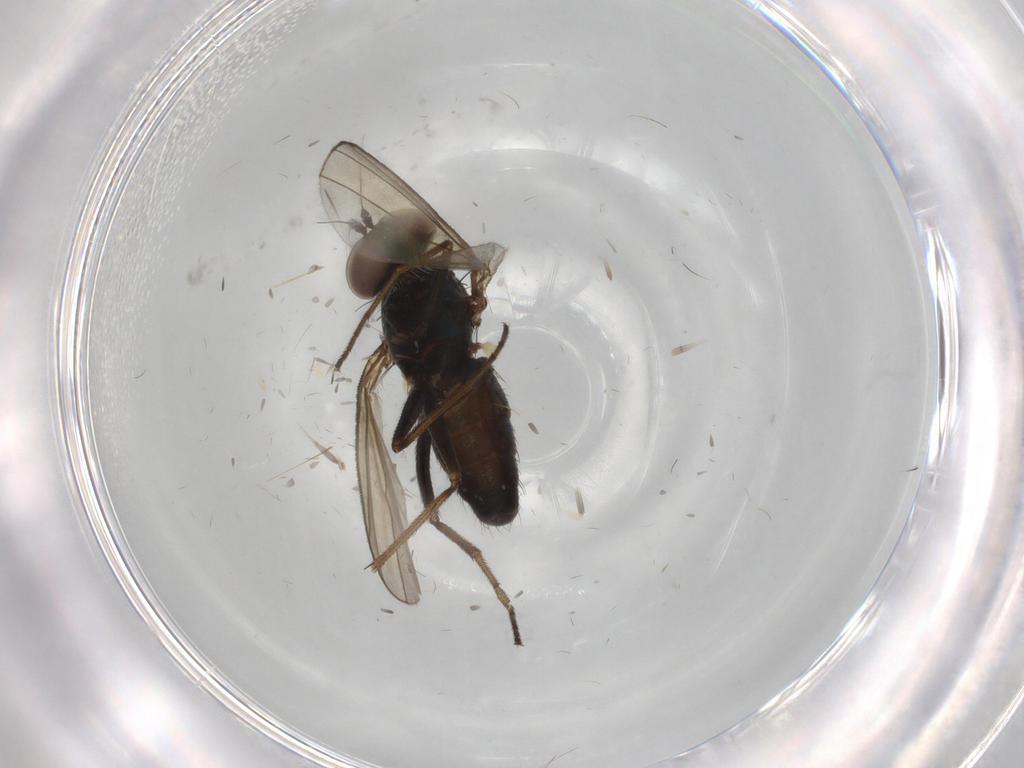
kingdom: Animalia
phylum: Arthropoda
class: Insecta
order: Diptera
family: Dolichopodidae
